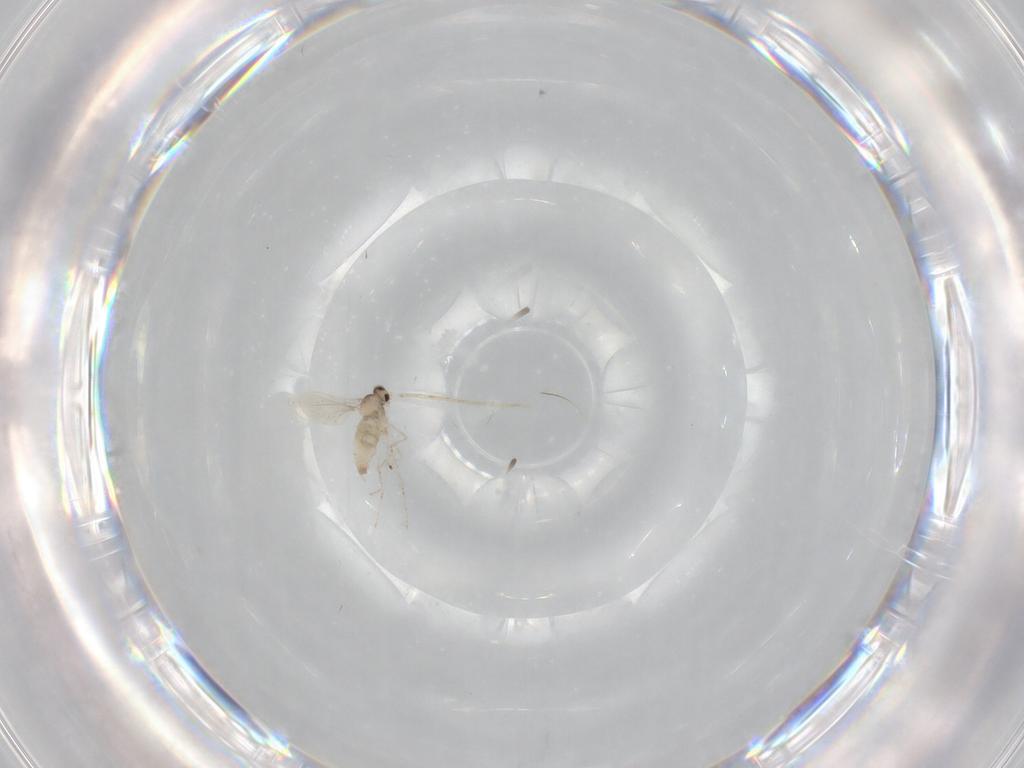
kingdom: Animalia
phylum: Arthropoda
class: Insecta
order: Diptera
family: Cecidomyiidae
